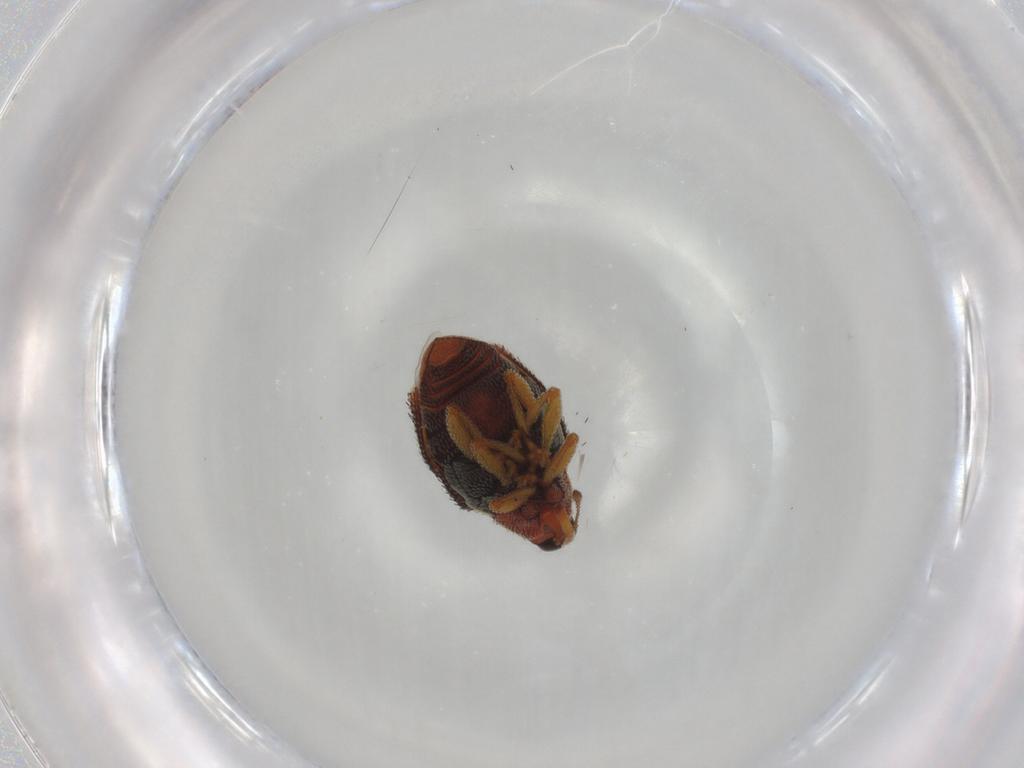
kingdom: Animalia
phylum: Arthropoda
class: Insecta
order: Coleoptera
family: Curculionidae
